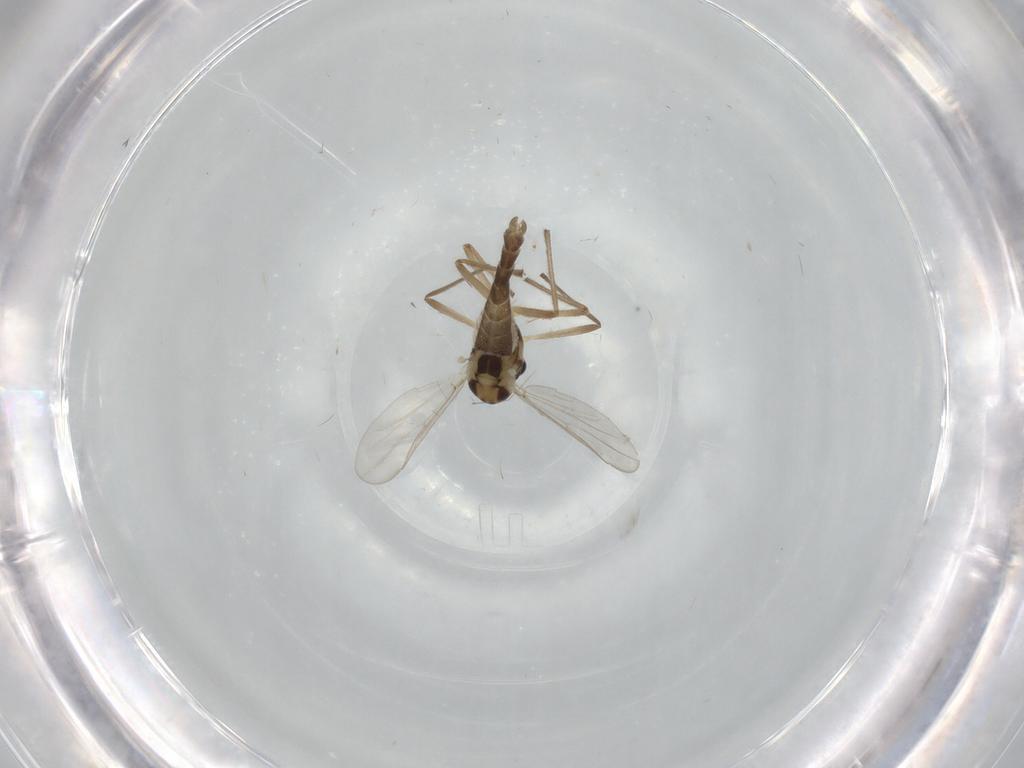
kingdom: Animalia
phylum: Arthropoda
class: Insecta
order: Diptera
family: Chironomidae
